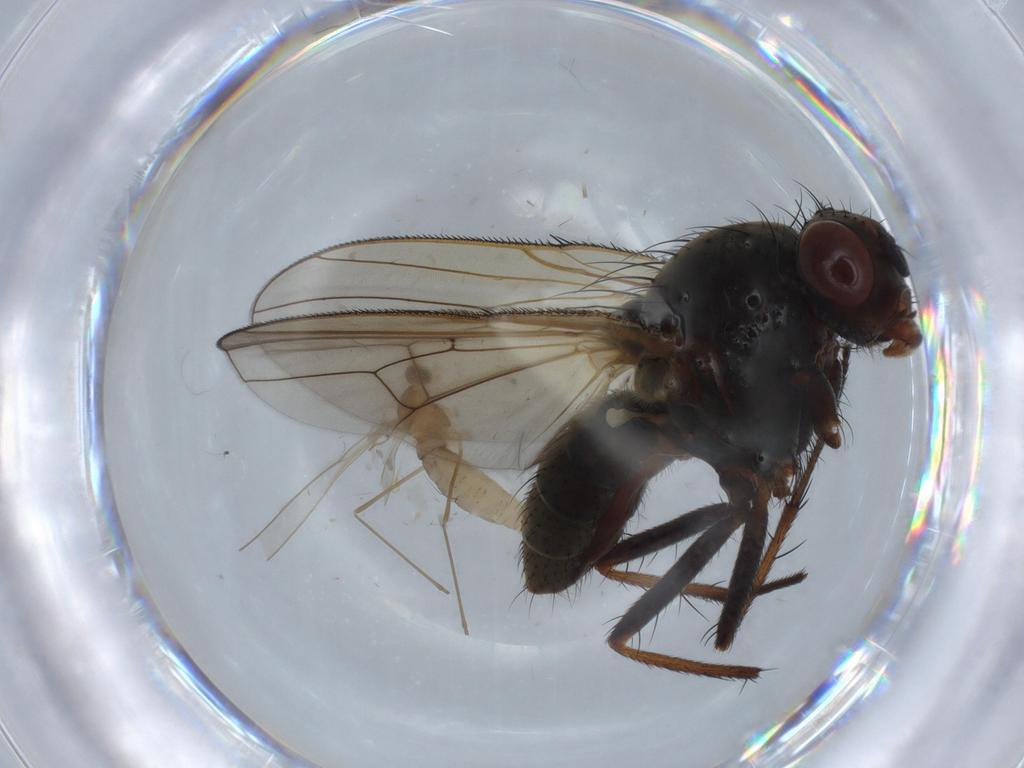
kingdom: Animalia
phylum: Arthropoda
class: Insecta
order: Diptera
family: Anthomyiidae
